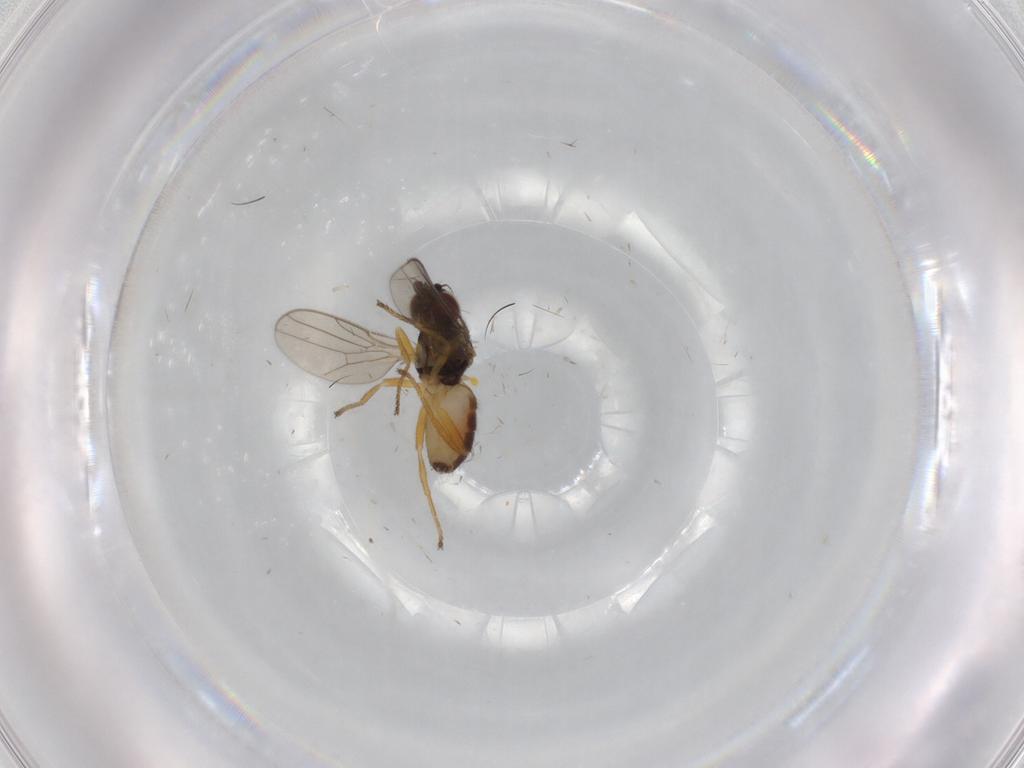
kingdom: Animalia
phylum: Arthropoda
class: Insecta
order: Diptera
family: Chloropidae
